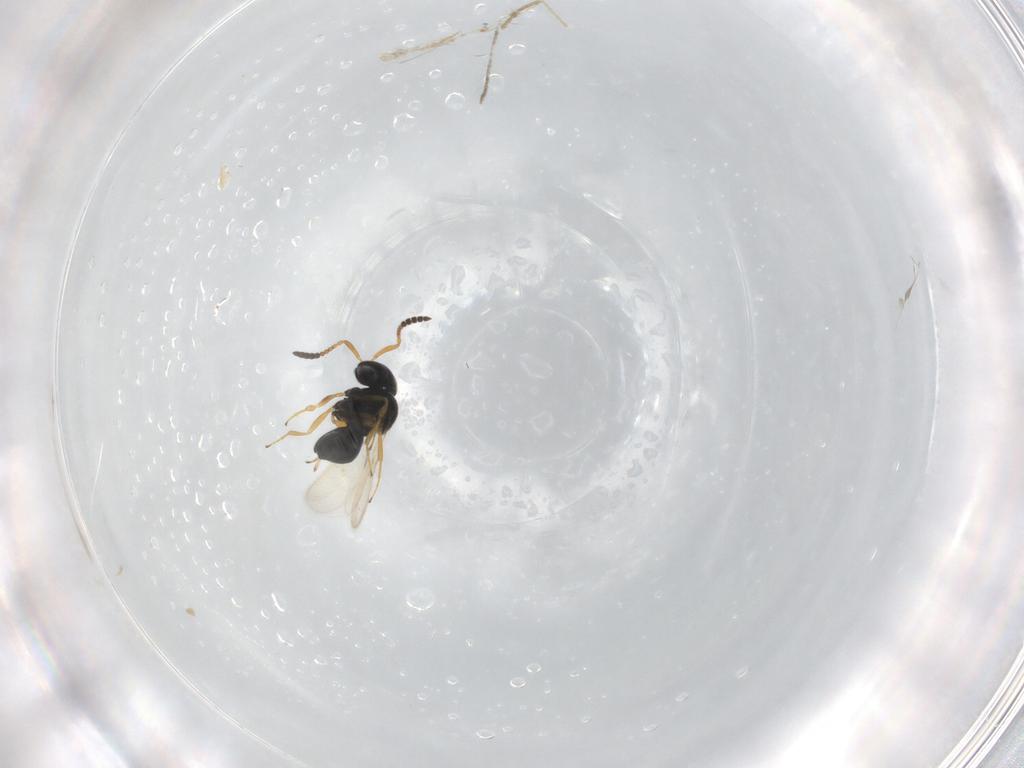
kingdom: Animalia
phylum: Arthropoda
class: Insecta
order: Hymenoptera
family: Scelionidae
